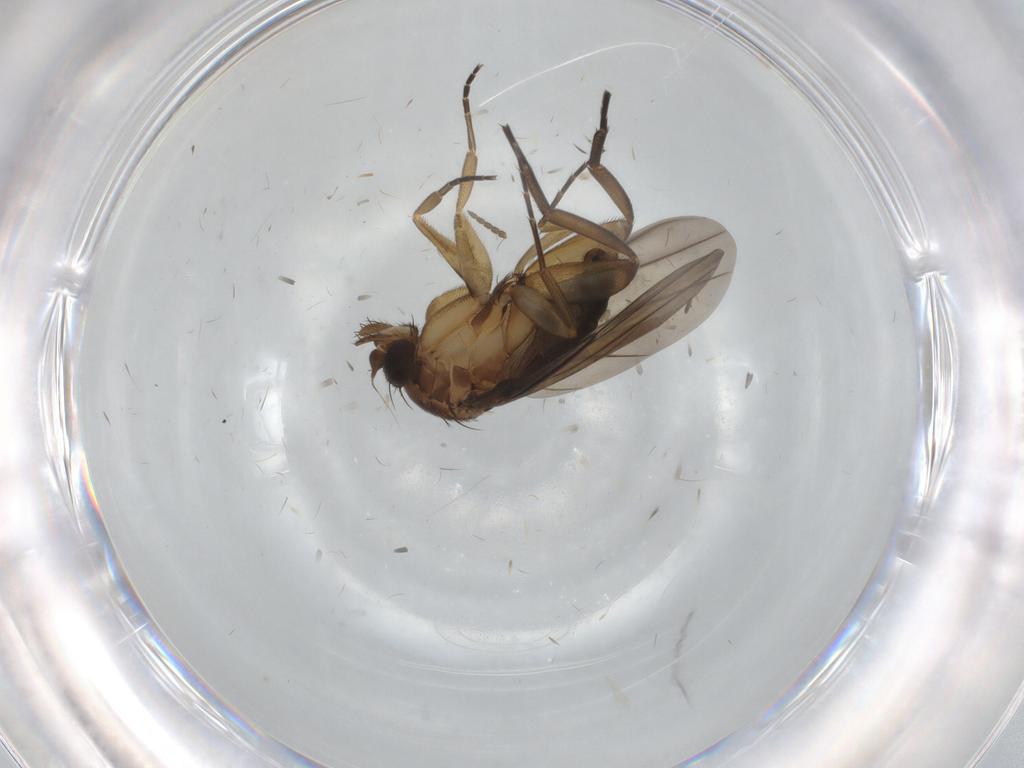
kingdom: Animalia
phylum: Arthropoda
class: Insecta
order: Diptera
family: Phoridae
